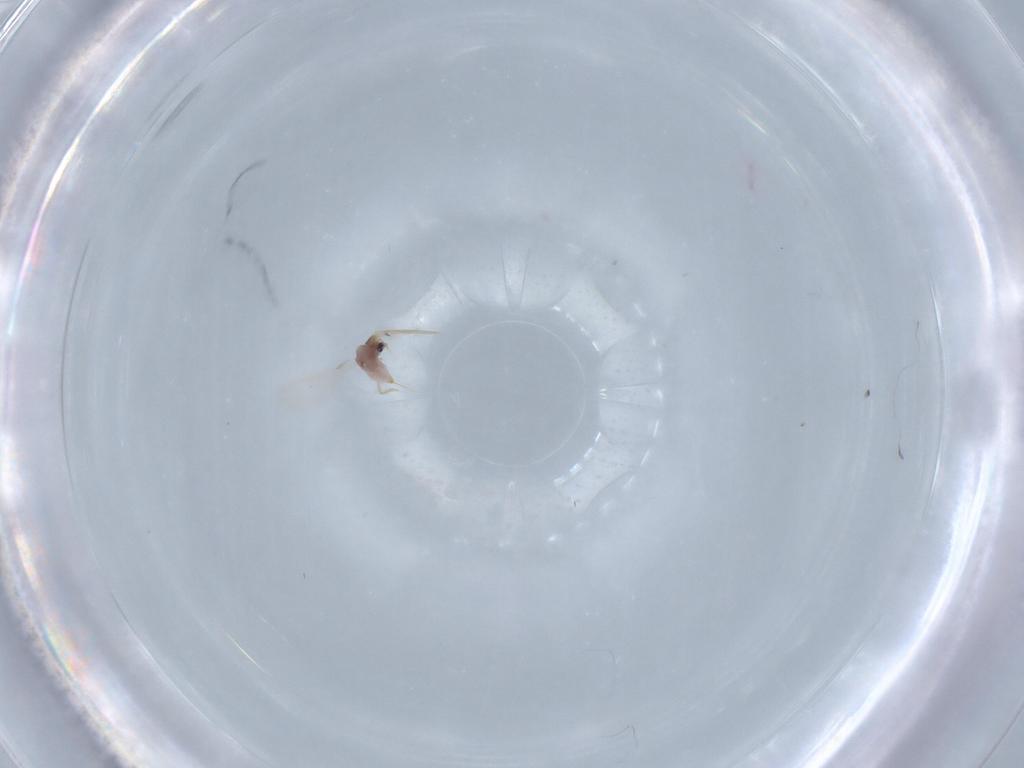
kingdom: Animalia
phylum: Arthropoda
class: Insecta
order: Hemiptera
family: Diaspididae
